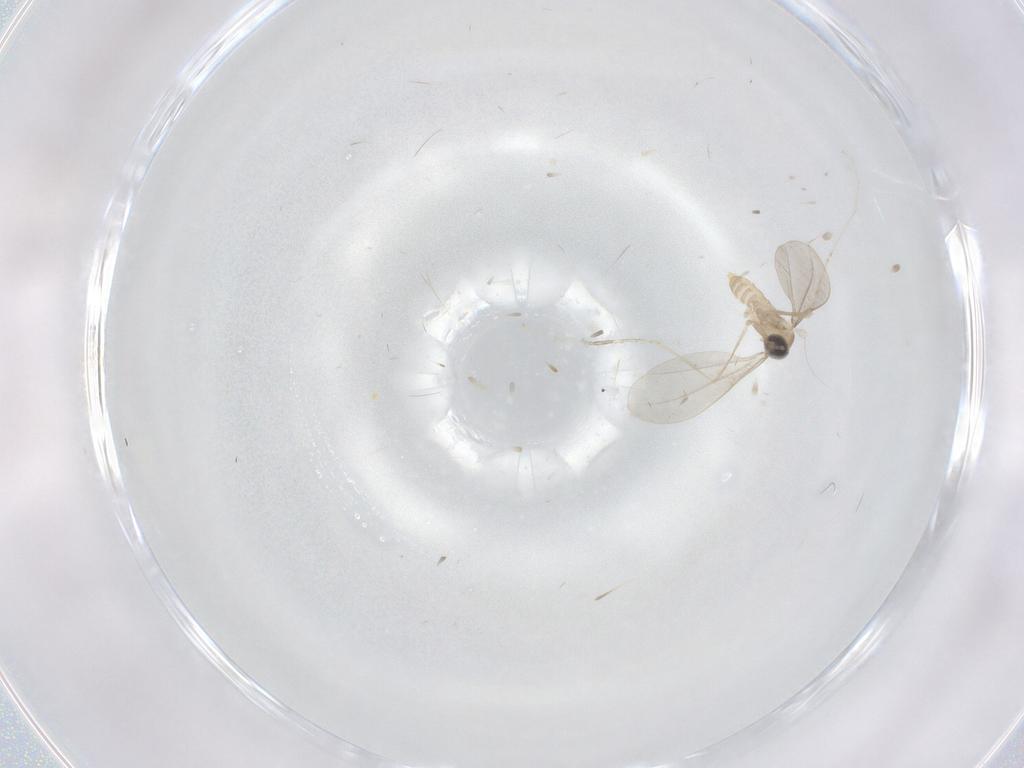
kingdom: Animalia
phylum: Arthropoda
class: Insecta
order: Diptera
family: Cecidomyiidae
